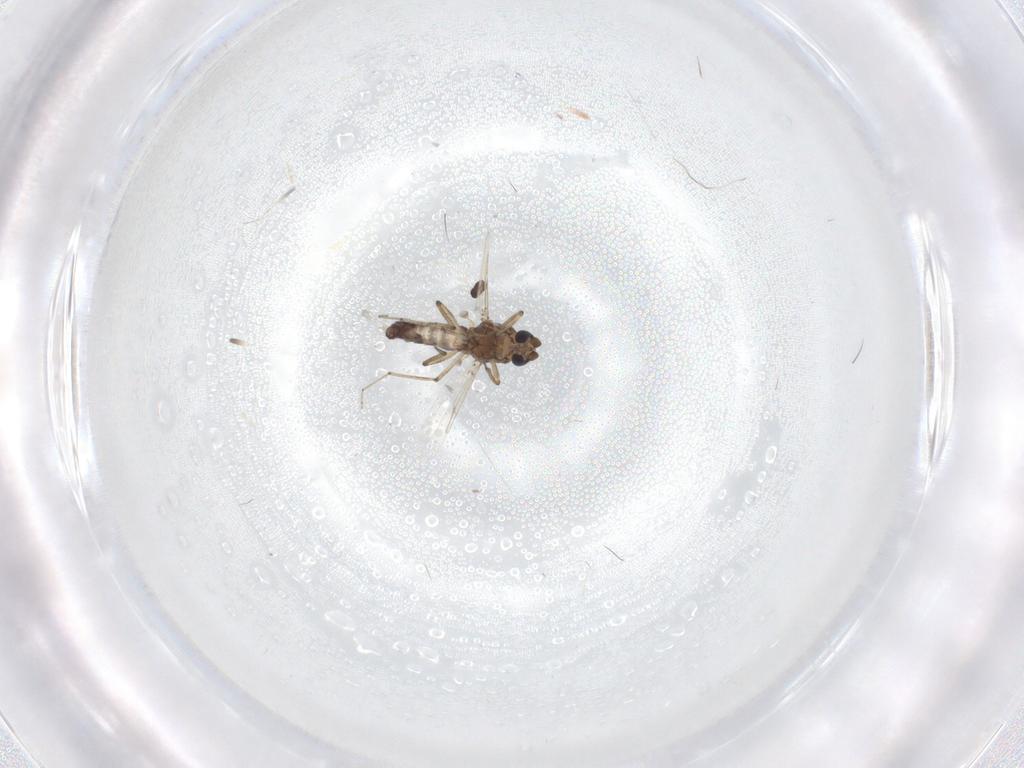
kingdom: Animalia
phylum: Arthropoda
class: Insecta
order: Diptera
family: Ceratopogonidae
